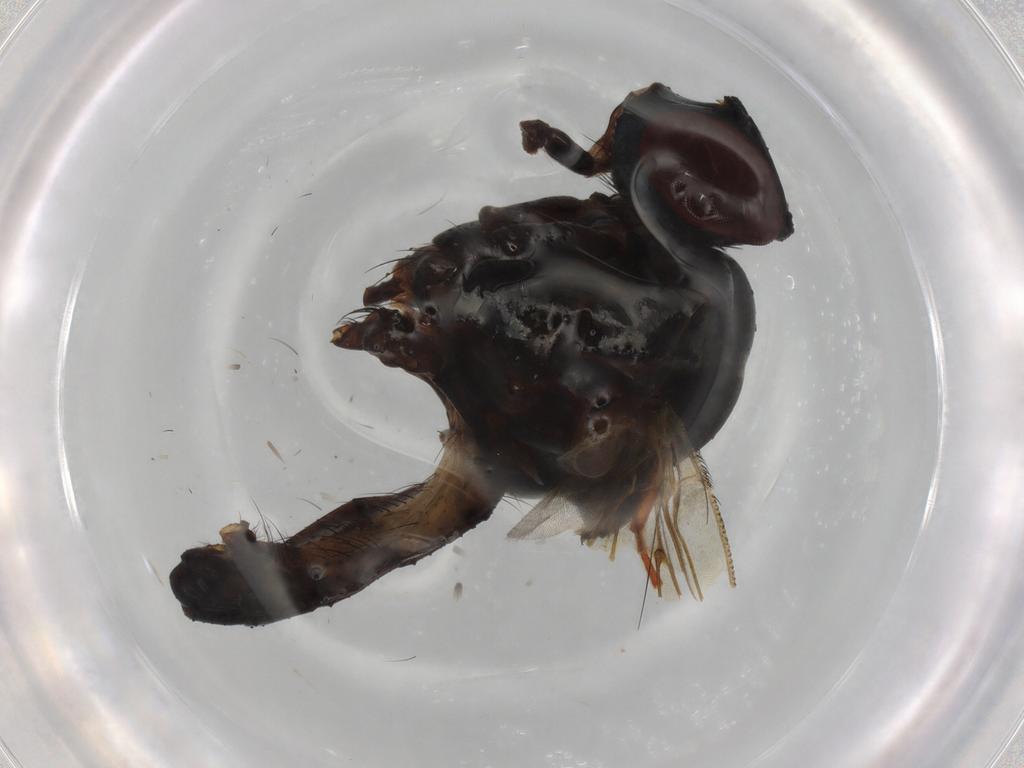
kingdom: Animalia
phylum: Arthropoda
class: Insecta
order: Diptera
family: Anthomyiidae
